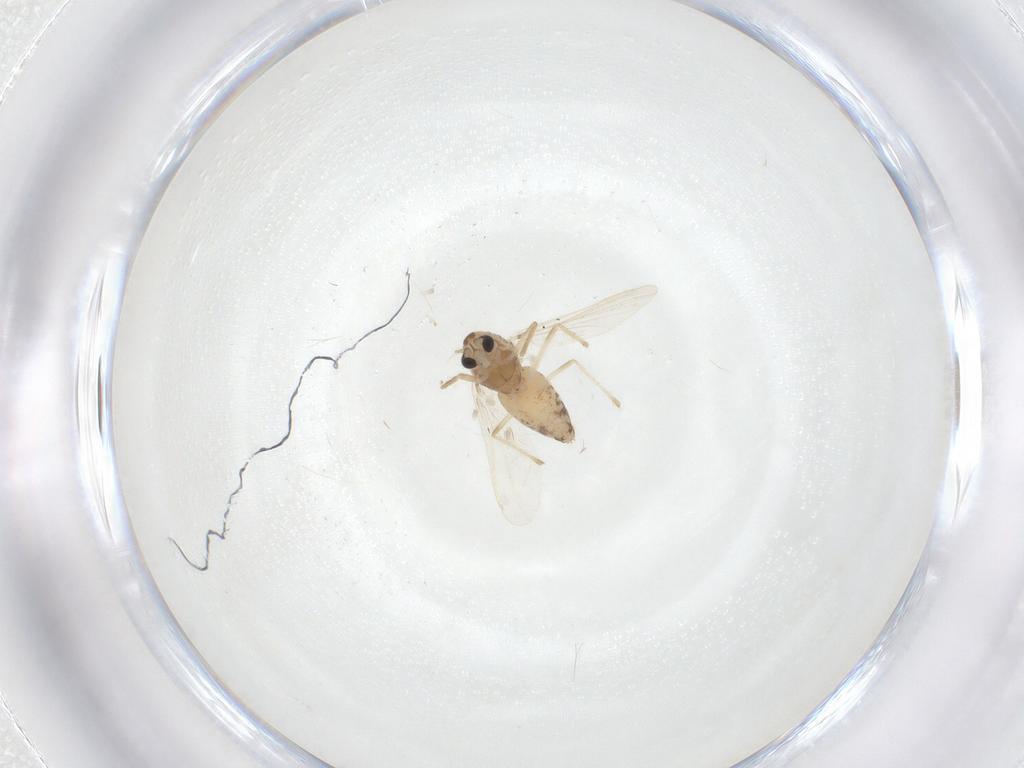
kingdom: Animalia
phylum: Arthropoda
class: Insecta
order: Diptera
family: Chironomidae
